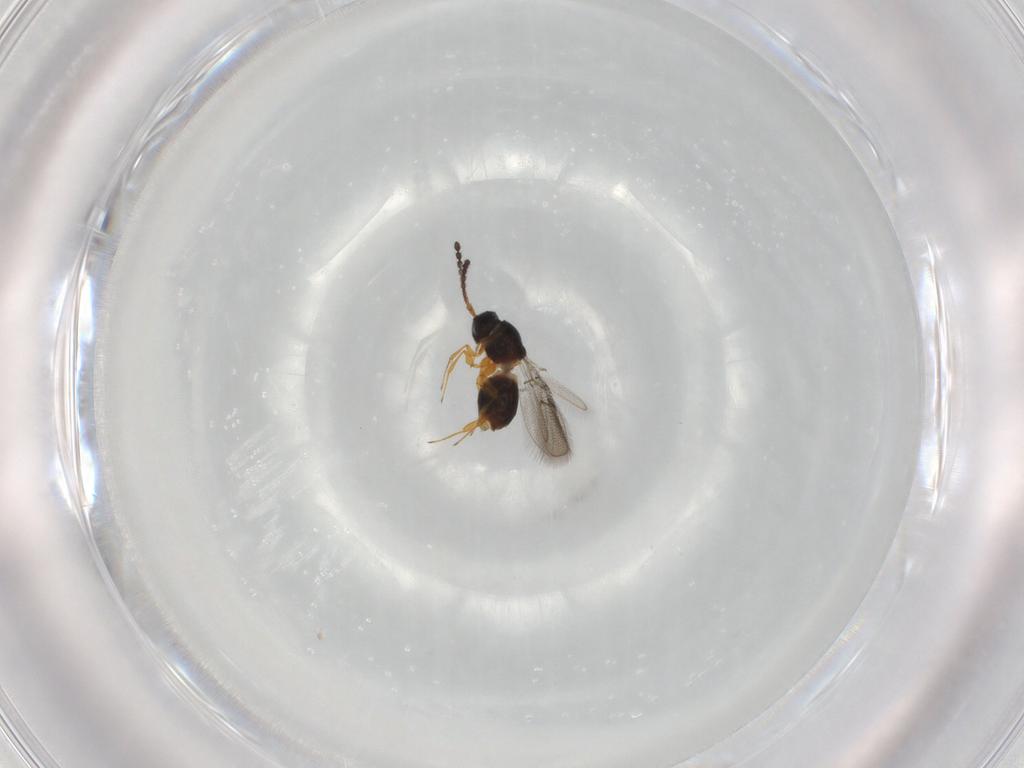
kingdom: Animalia
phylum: Arthropoda
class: Insecta
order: Hymenoptera
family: Figitidae
